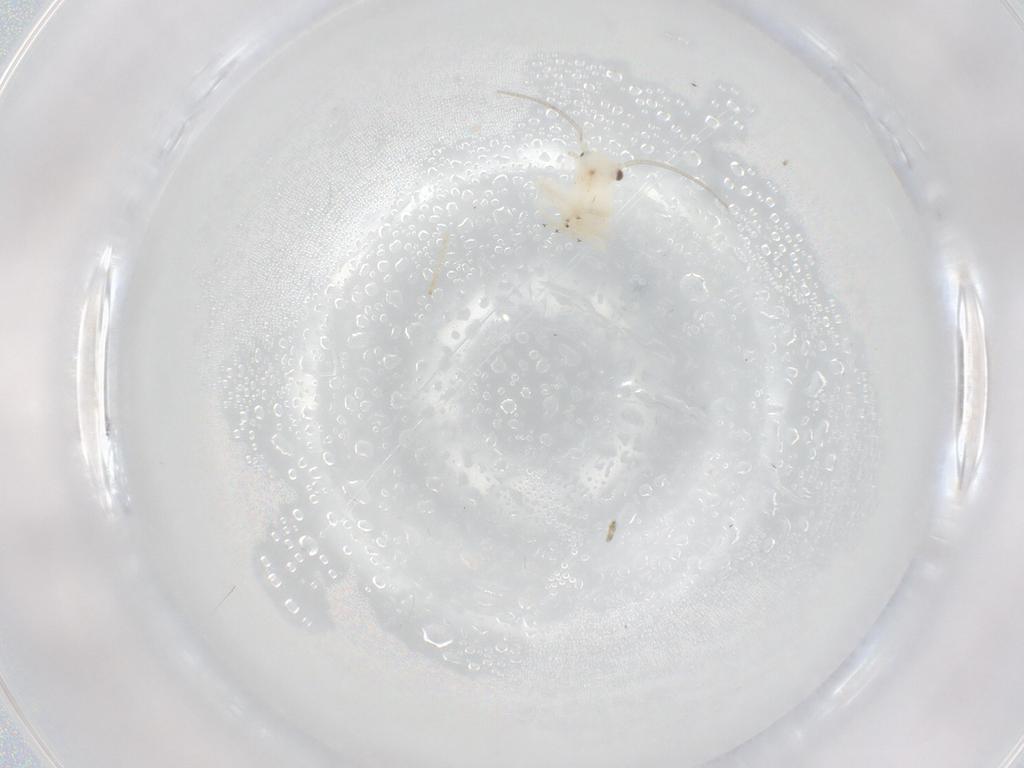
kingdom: Animalia
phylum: Arthropoda
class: Insecta
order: Psocodea
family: Caeciliusidae
